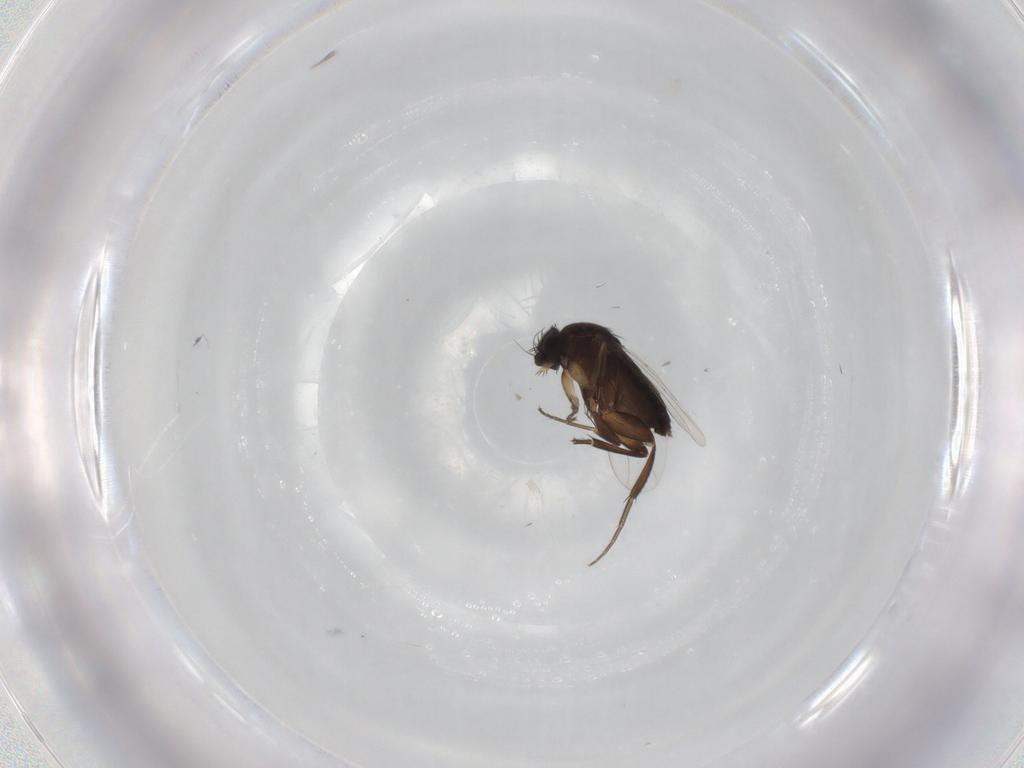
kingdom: Animalia
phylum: Arthropoda
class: Insecta
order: Diptera
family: Phoridae
